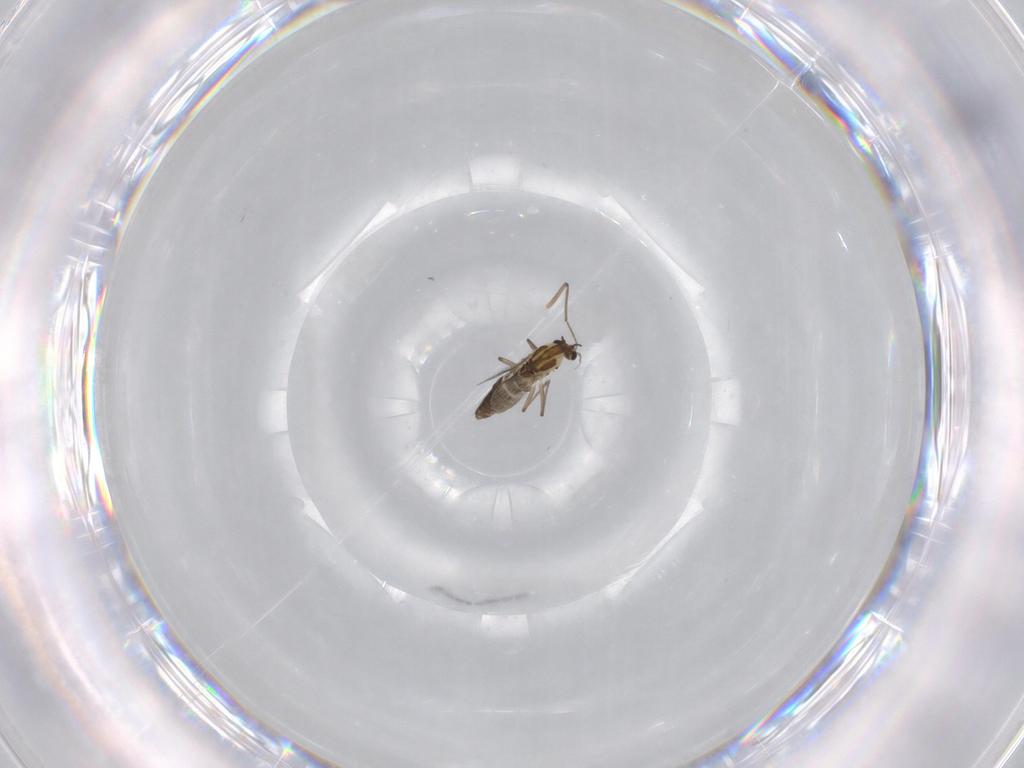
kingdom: Animalia
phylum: Arthropoda
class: Insecta
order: Diptera
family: Chironomidae
